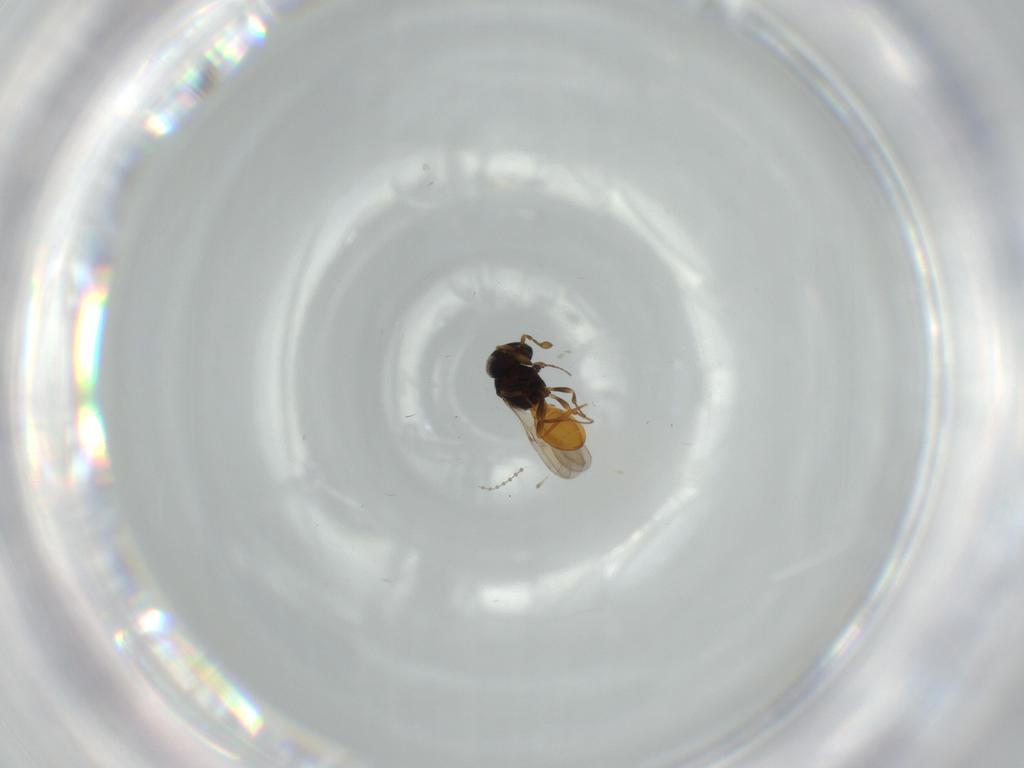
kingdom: Animalia
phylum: Arthropoda
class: Insecta
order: Hymenoptera
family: Scelionidae
